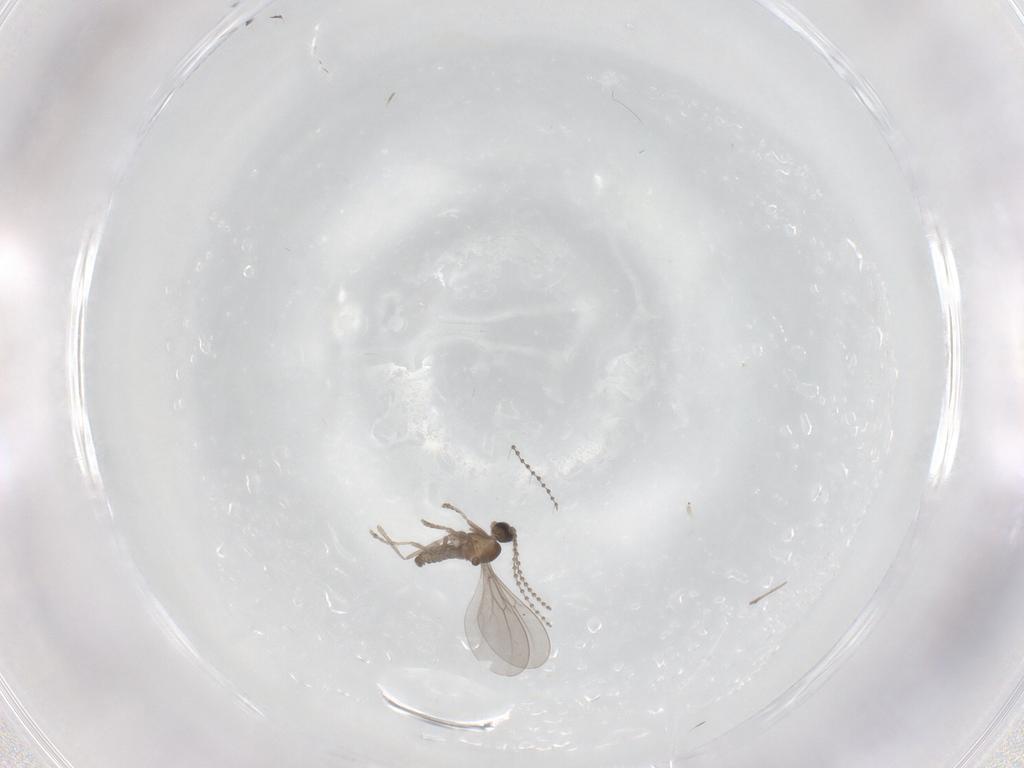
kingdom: Animalia
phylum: Arthropoda
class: Insecta
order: Diptera
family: Cecidomyiidae
